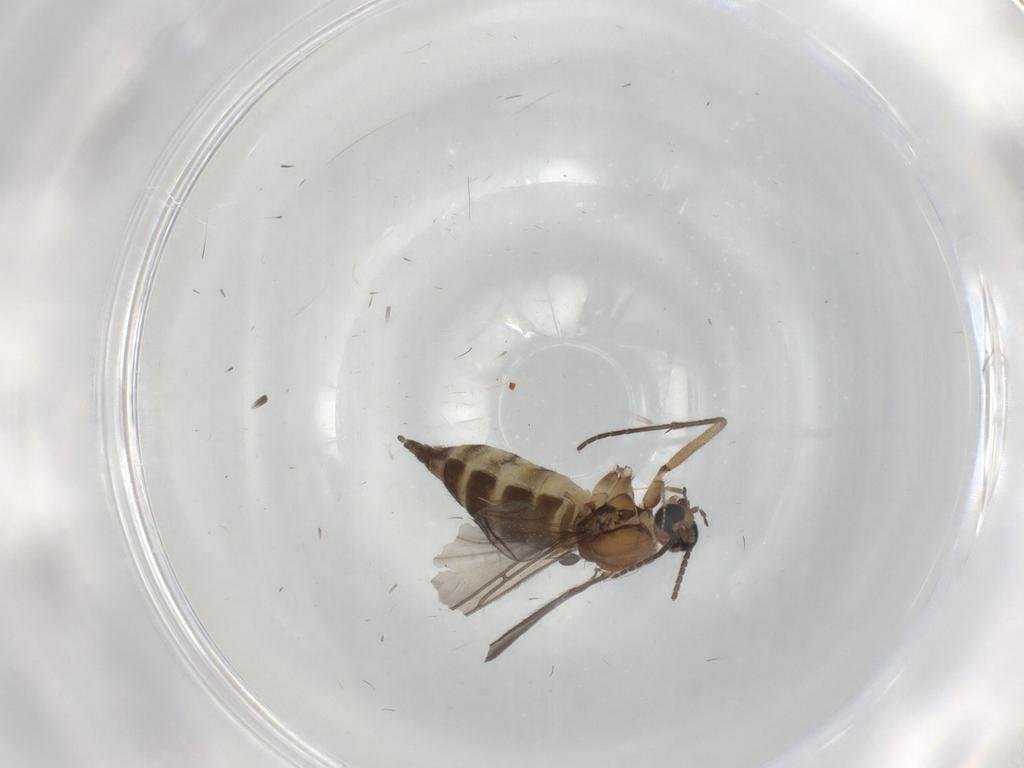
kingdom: Animalia
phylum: Arthropoda
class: Insecta
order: Diptera
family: Sciaridae
